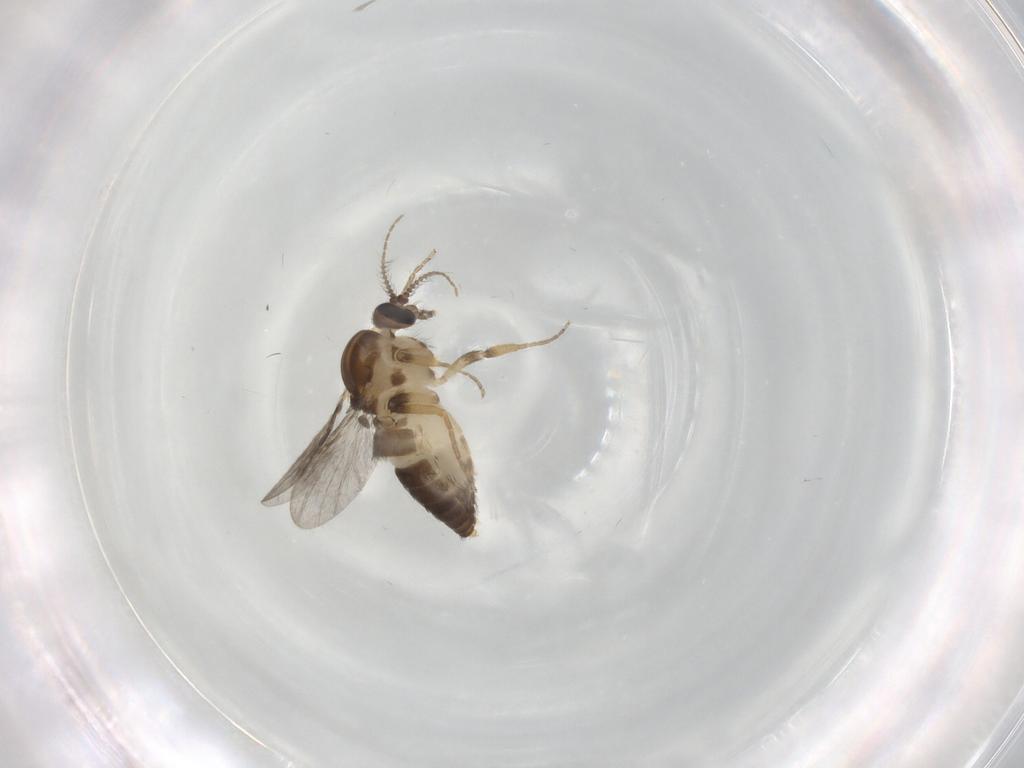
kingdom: Animalia
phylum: Arthropoda
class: Insecta
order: Diptera
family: Ceratopogonidae
